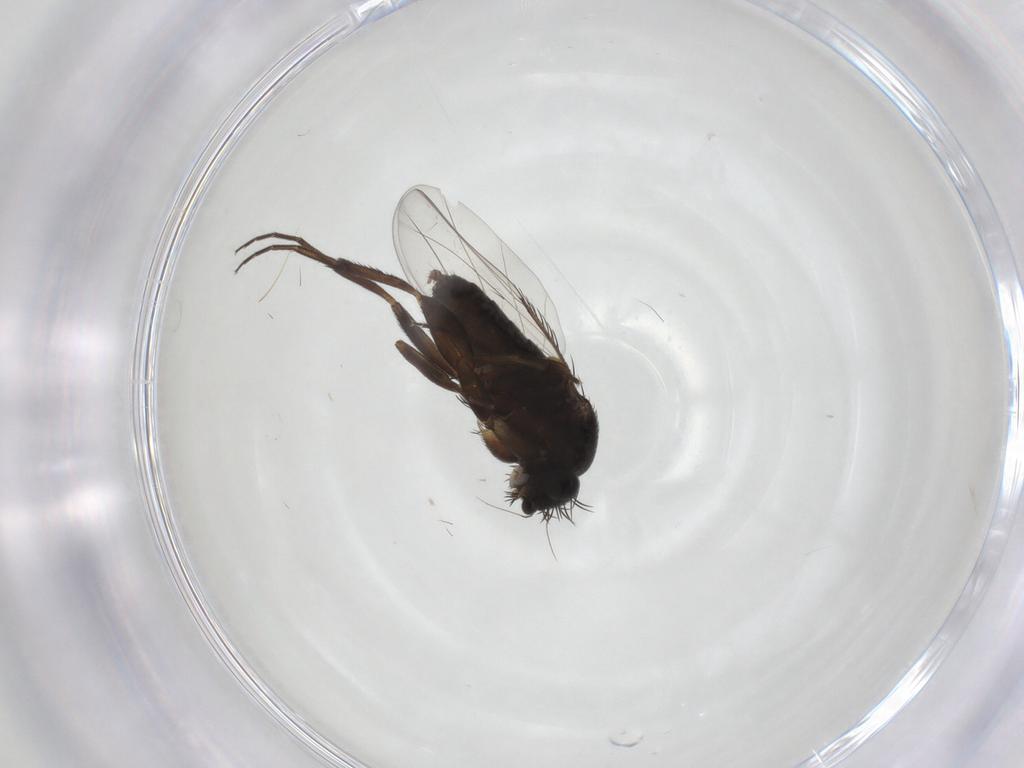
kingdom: Animalia
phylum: Arthropoda
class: Insecta
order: Diptera
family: Phoridae
